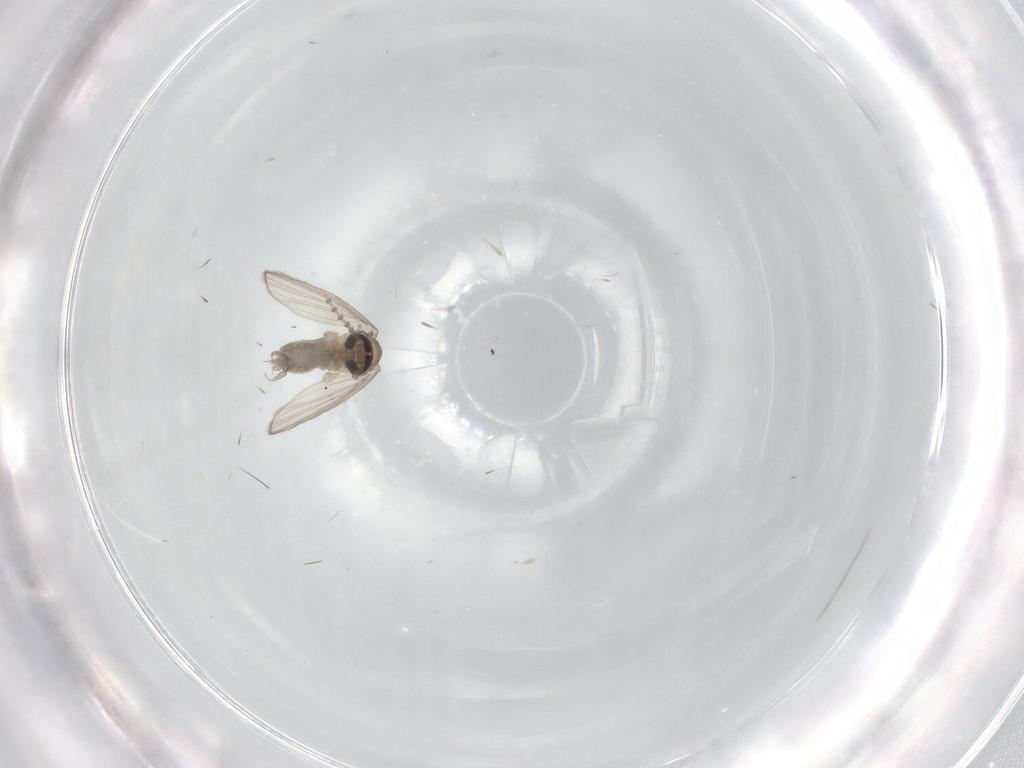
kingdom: Animalia
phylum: Arthropoda
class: Insecta
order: Diptera
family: Psychodidae
